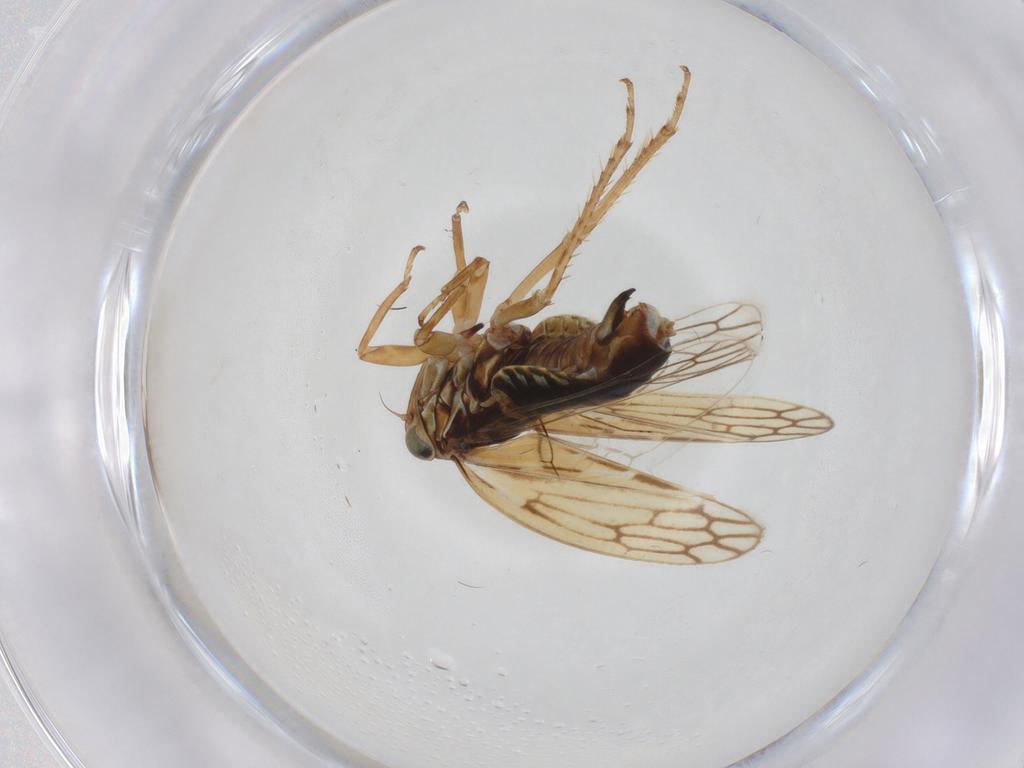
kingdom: Animalia
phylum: Arthropoda
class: Insecta
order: Hemiptera
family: Cicadellidae
